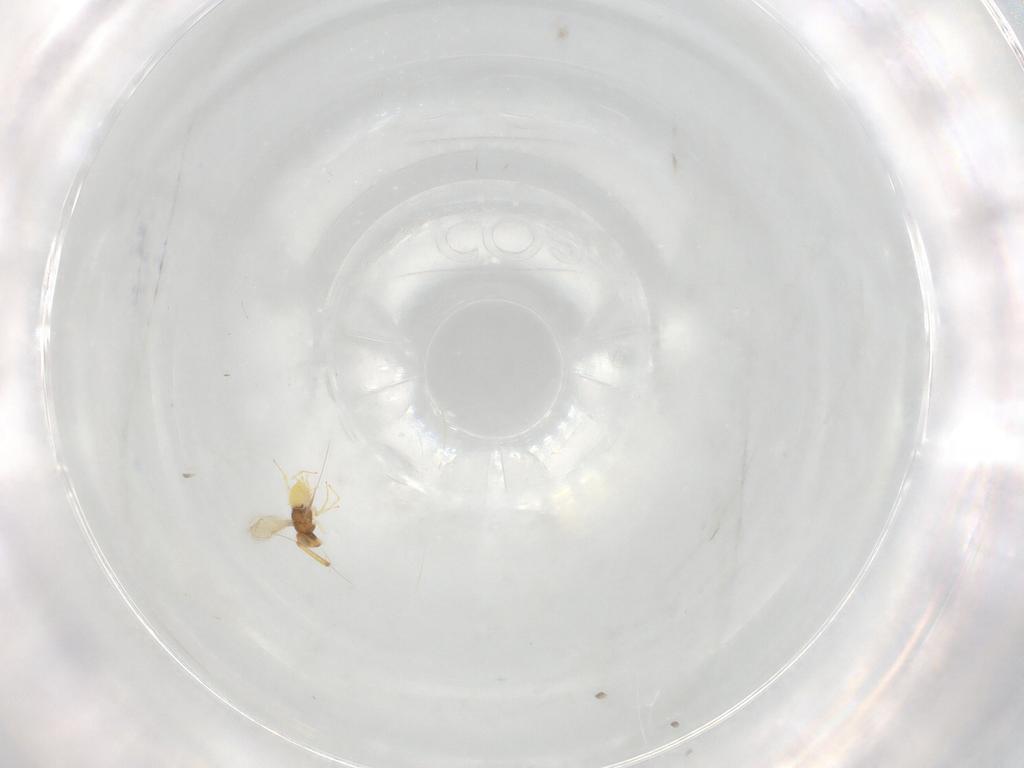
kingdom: Animalia
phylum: Arthropoda
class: Insecta
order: Hymenoptera
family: Aphelinidae
